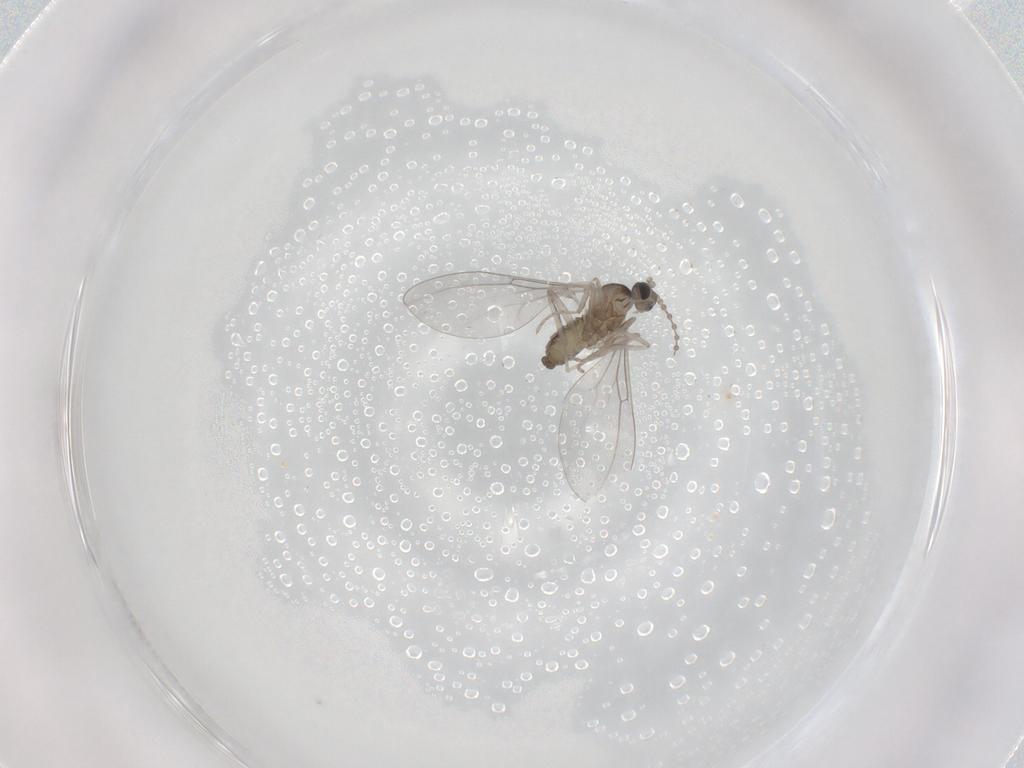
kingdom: Animalia
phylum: Arthropoda
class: Insecta
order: Diptera
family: Cecidomyiidae
